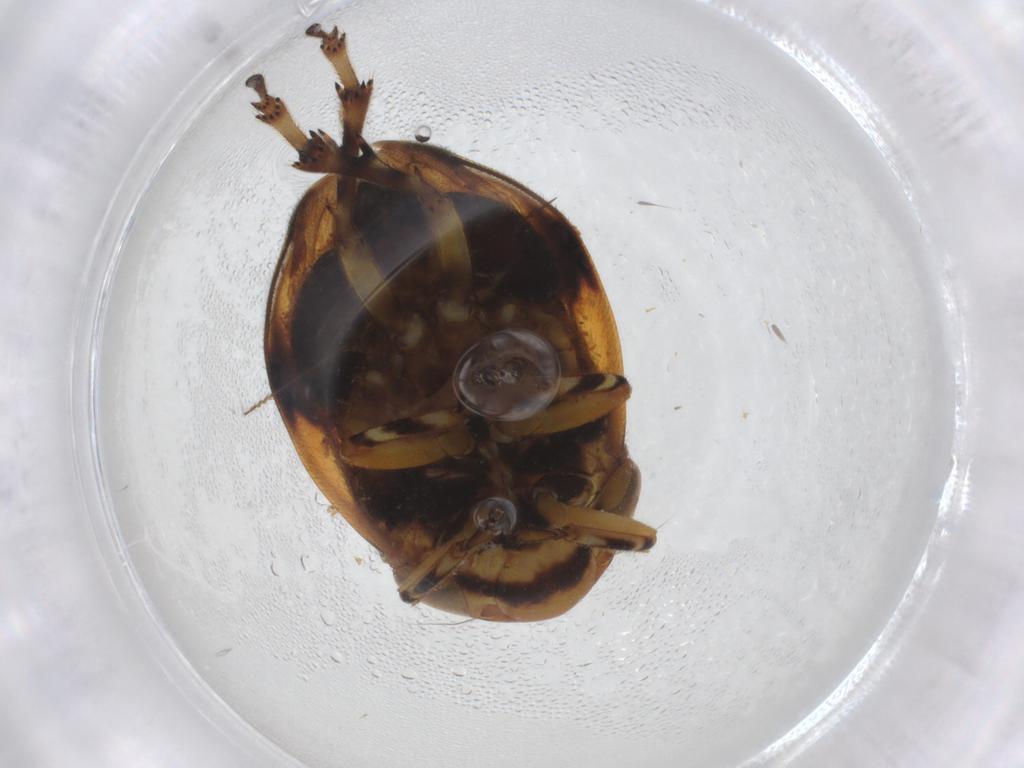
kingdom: Animalia
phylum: Arthropoda
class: Insecta
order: Hemiptera
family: Clastopteridae
